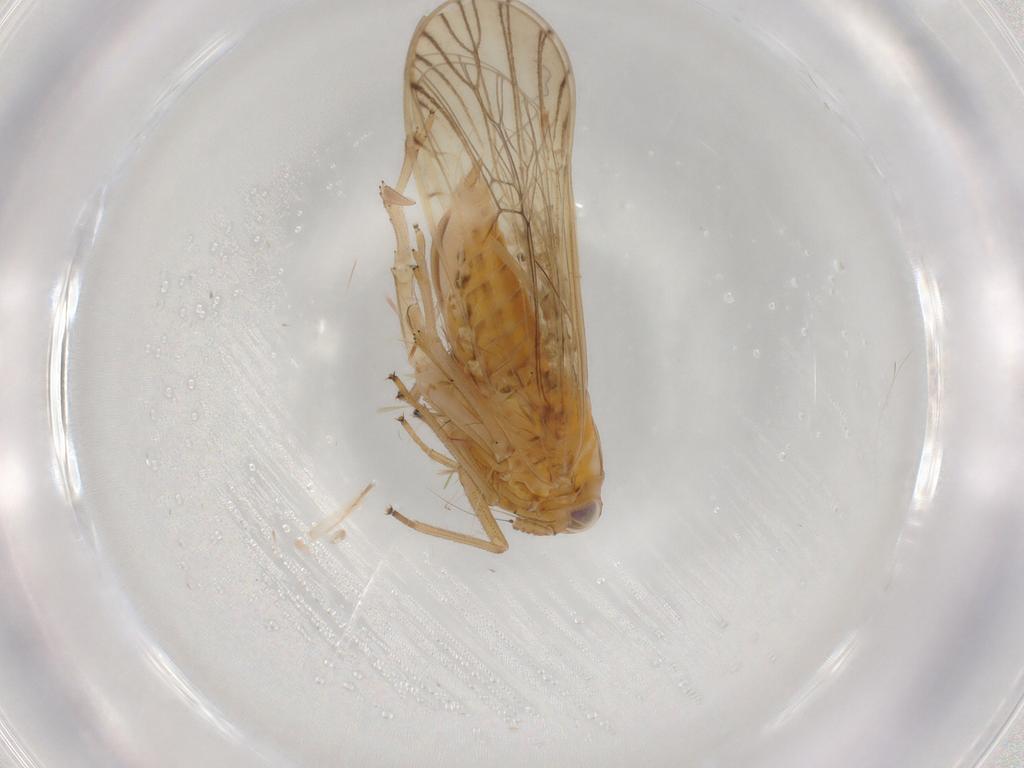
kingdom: Animalia
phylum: Arthropoda
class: Insecta
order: Hemiptera
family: Delphacidae
